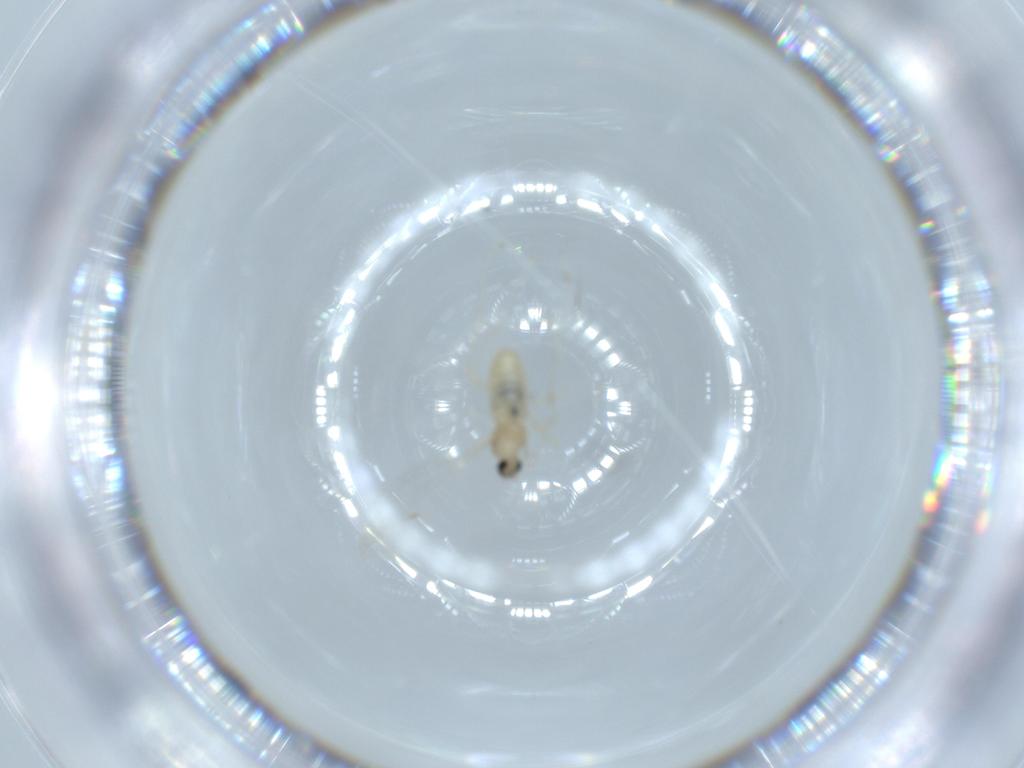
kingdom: Animalia
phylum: Arthropoda
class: Insecta
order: Diptera
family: Cecidomyiidae
